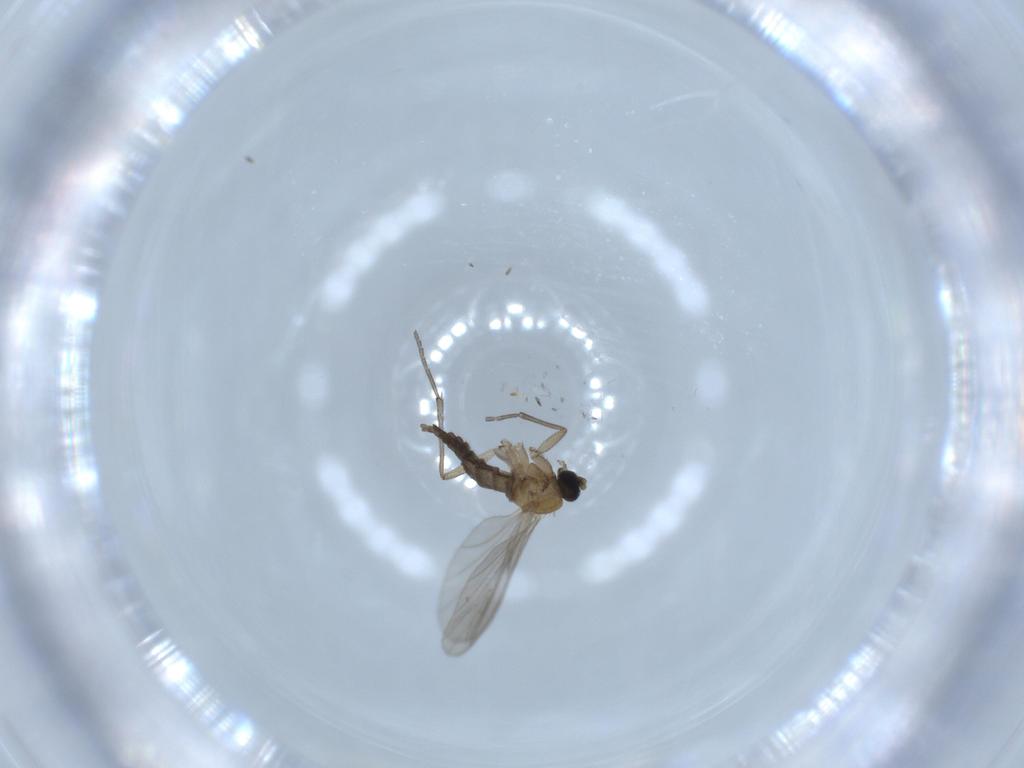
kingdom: Animalia
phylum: Arthropoda
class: Insecta
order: Diptera
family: Sciaridae
